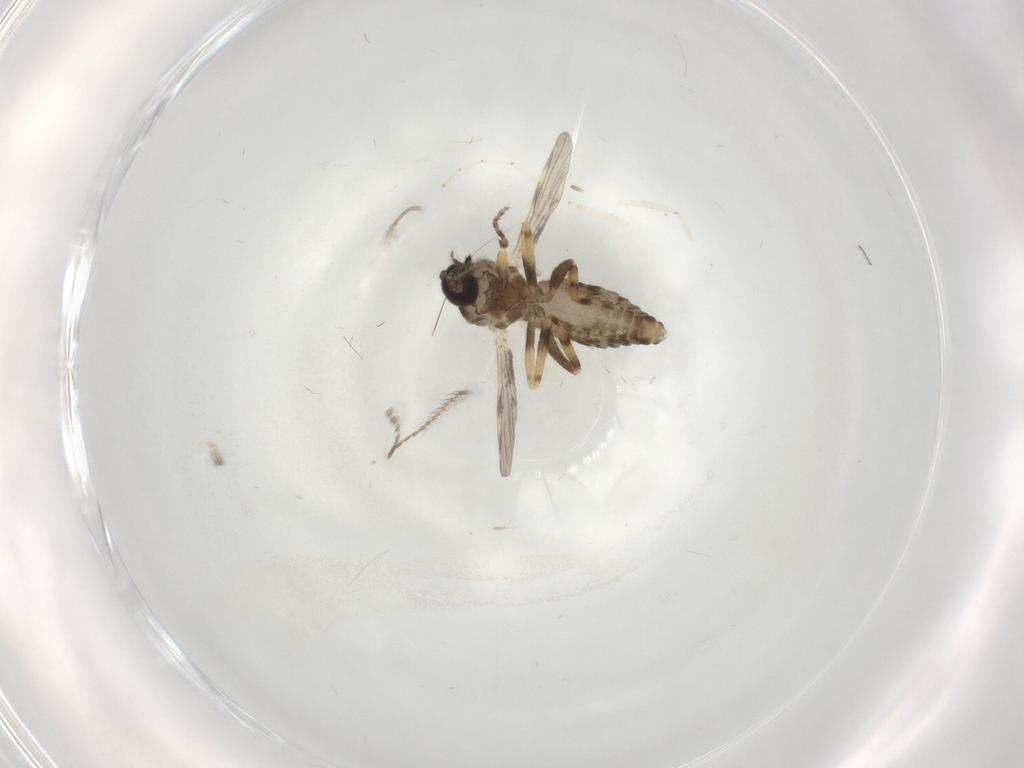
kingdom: Animalia
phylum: Arthropoda
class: Insecta
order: Diptera
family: Ceratopogonidae
